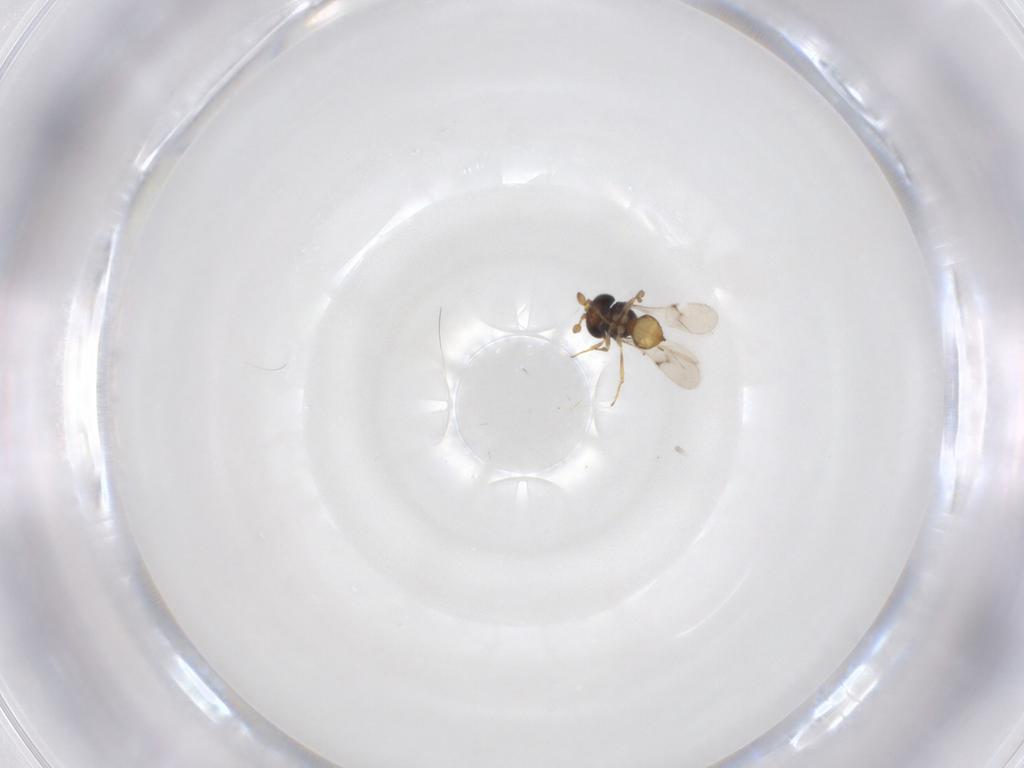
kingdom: Animalia
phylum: Arthropoda
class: Insecta
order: Hymenoptera
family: Scelionidae
